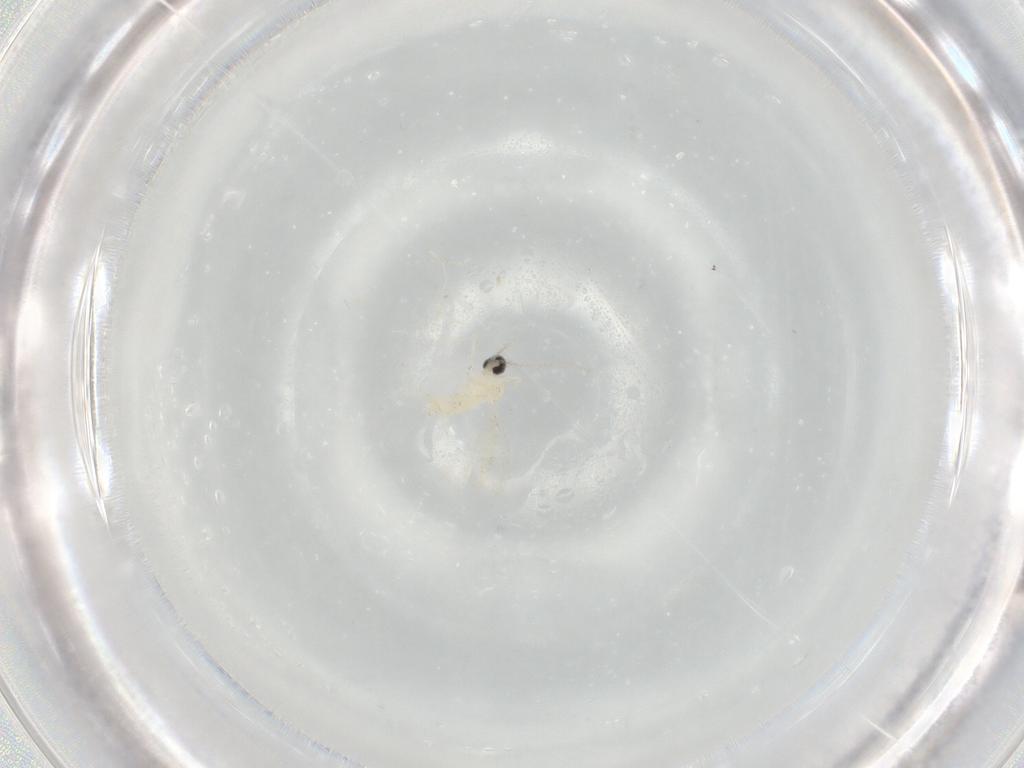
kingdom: Animalia
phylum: Arthropoda
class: Insecta
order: Diptera
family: Cecidomyiidae
